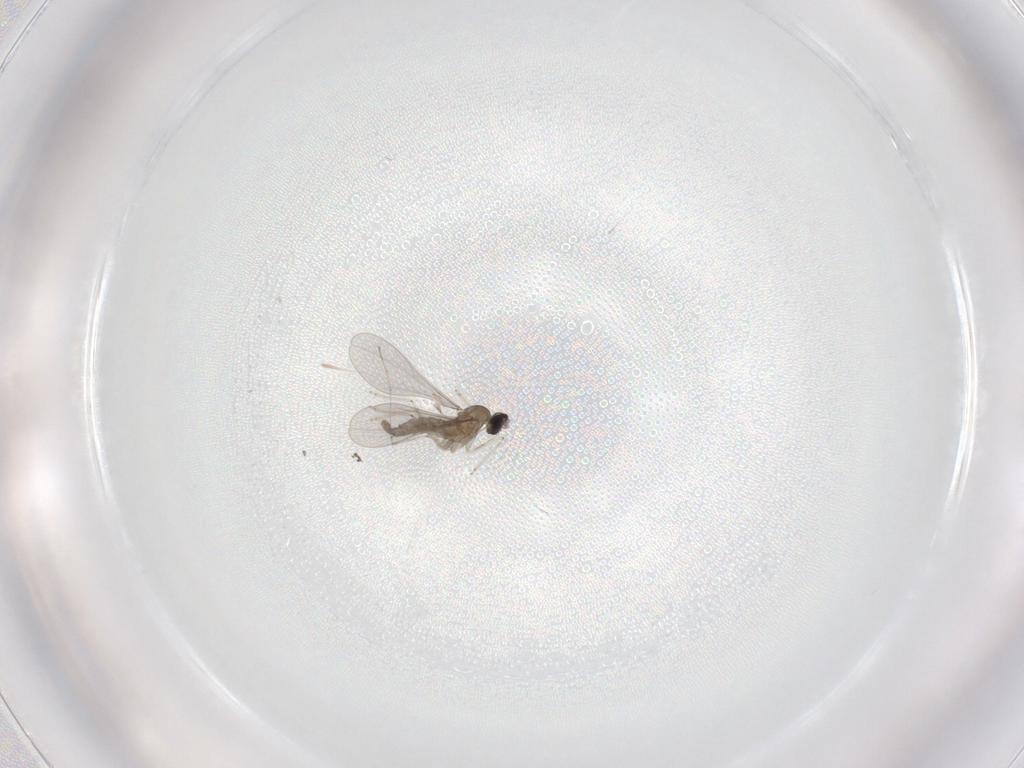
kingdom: Animalia
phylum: Arthropoda
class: Insecta
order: Diptera
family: Cecidomyiidae
